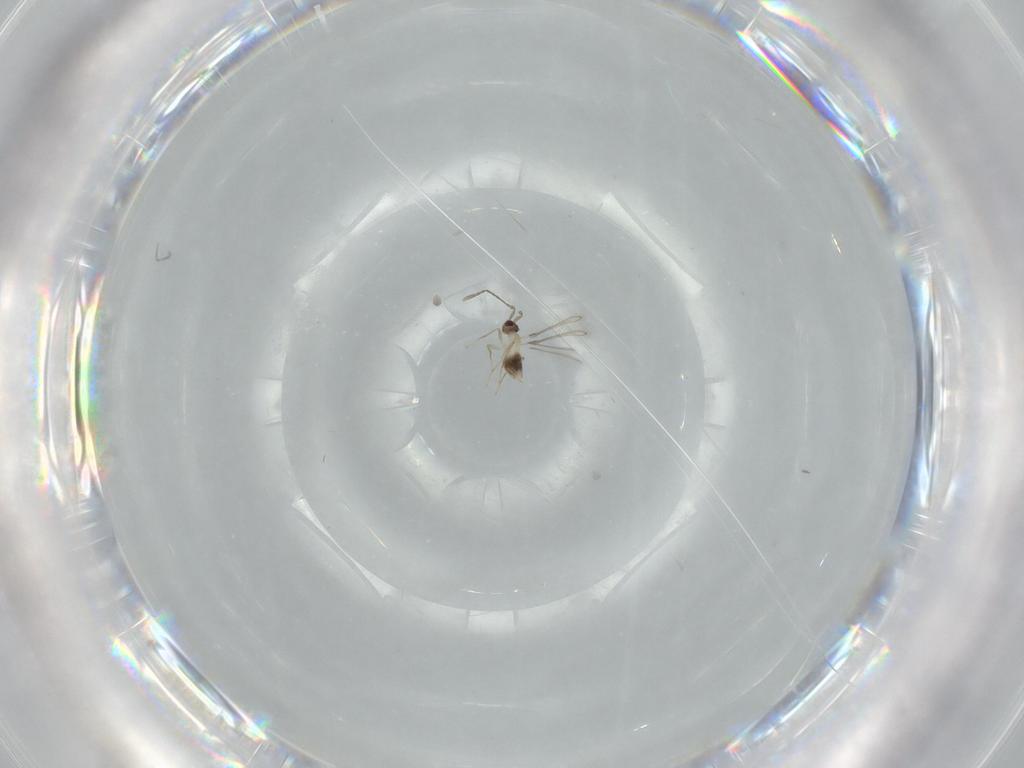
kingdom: Animalia
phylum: Arthropoda
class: Insecta
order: Hymenoptera
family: Mymaridae
